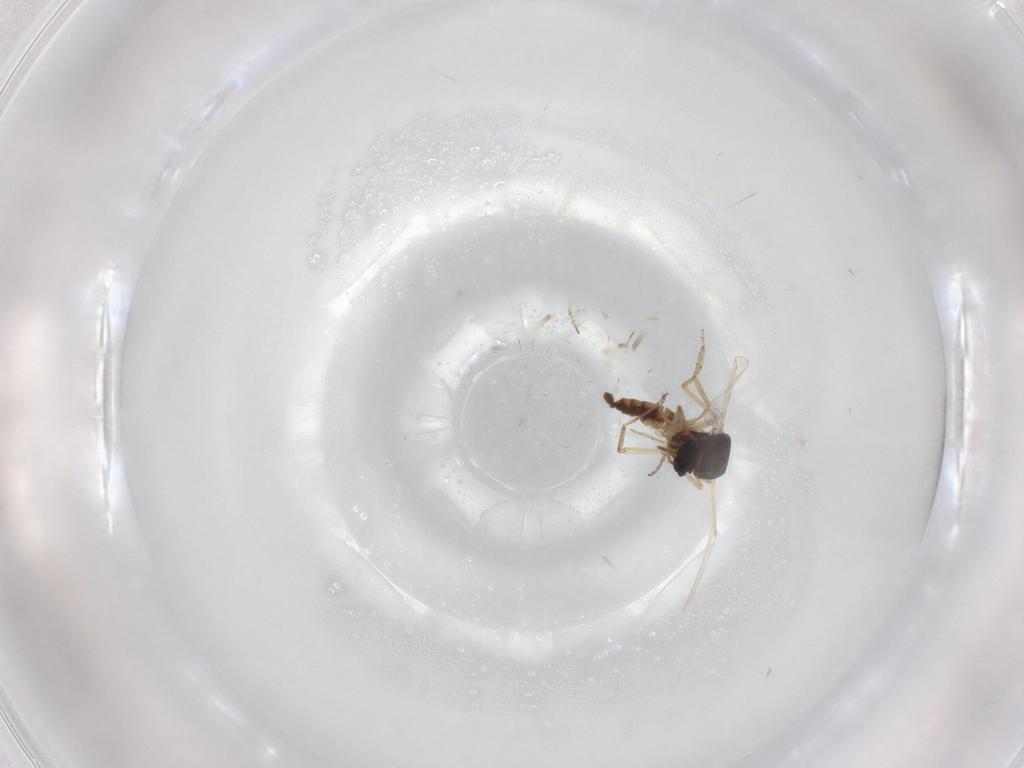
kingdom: Animalia
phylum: Arthropoda
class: Insecta
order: Diptera
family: Ceratopogonidae
